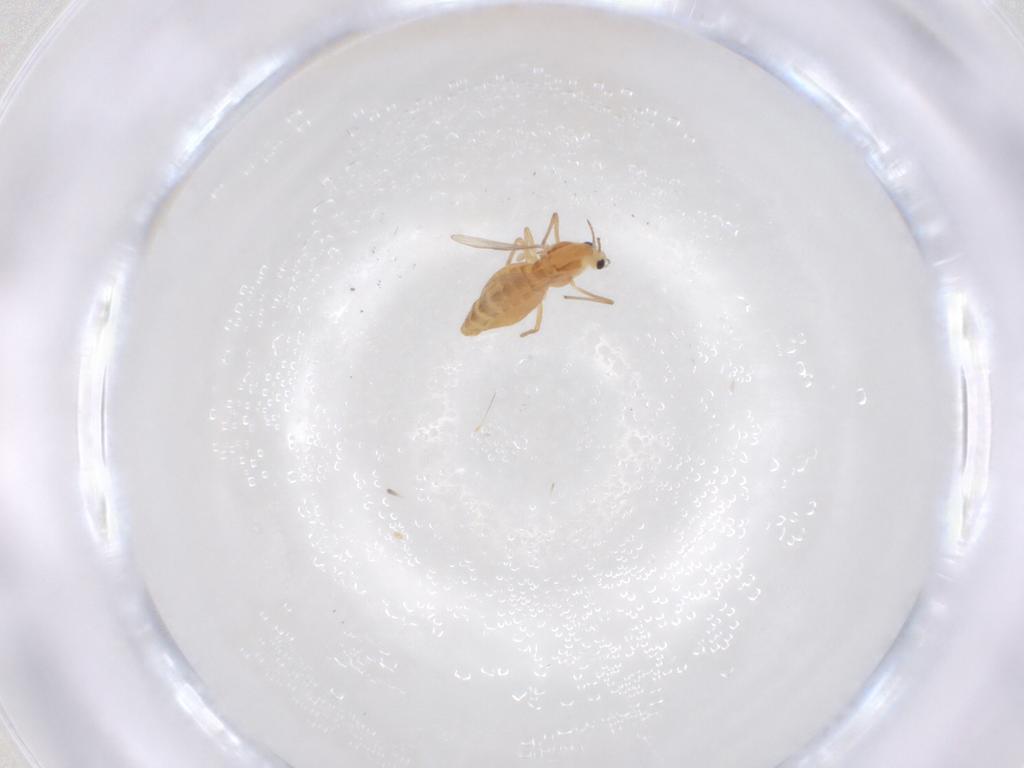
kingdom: Animalia
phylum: Arthropoda
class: Insecta
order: Diptera
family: Chironomidae
